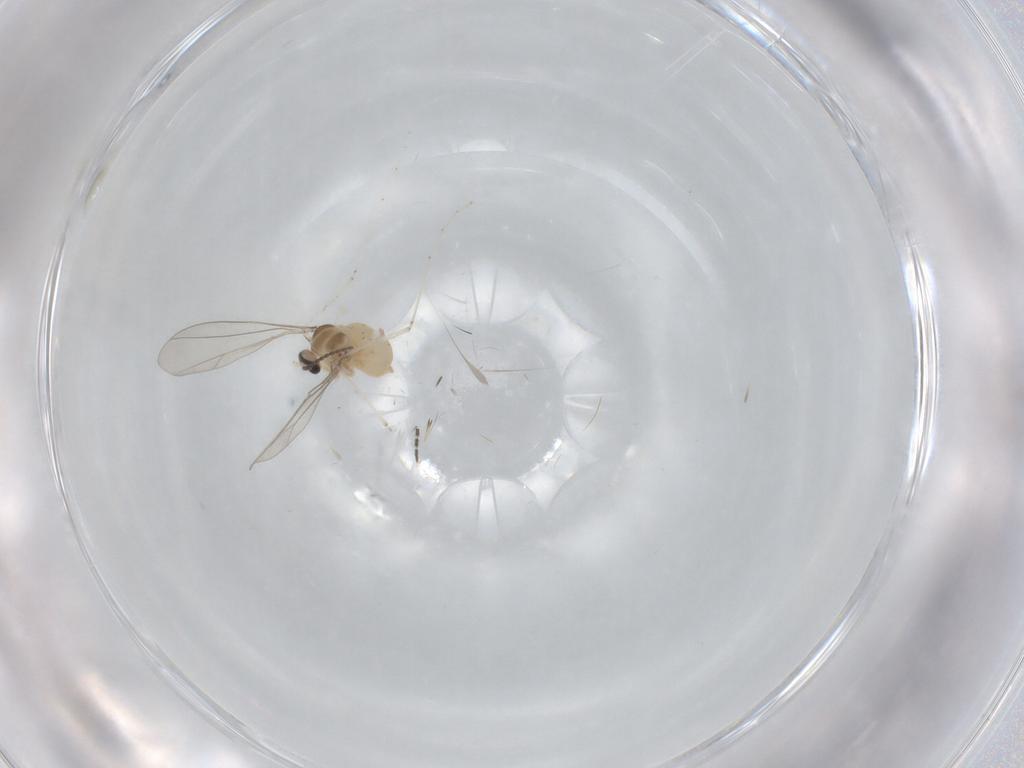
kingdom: Animalia
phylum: Arthropoda
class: Insecta
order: Diptera
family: Sciaridae
